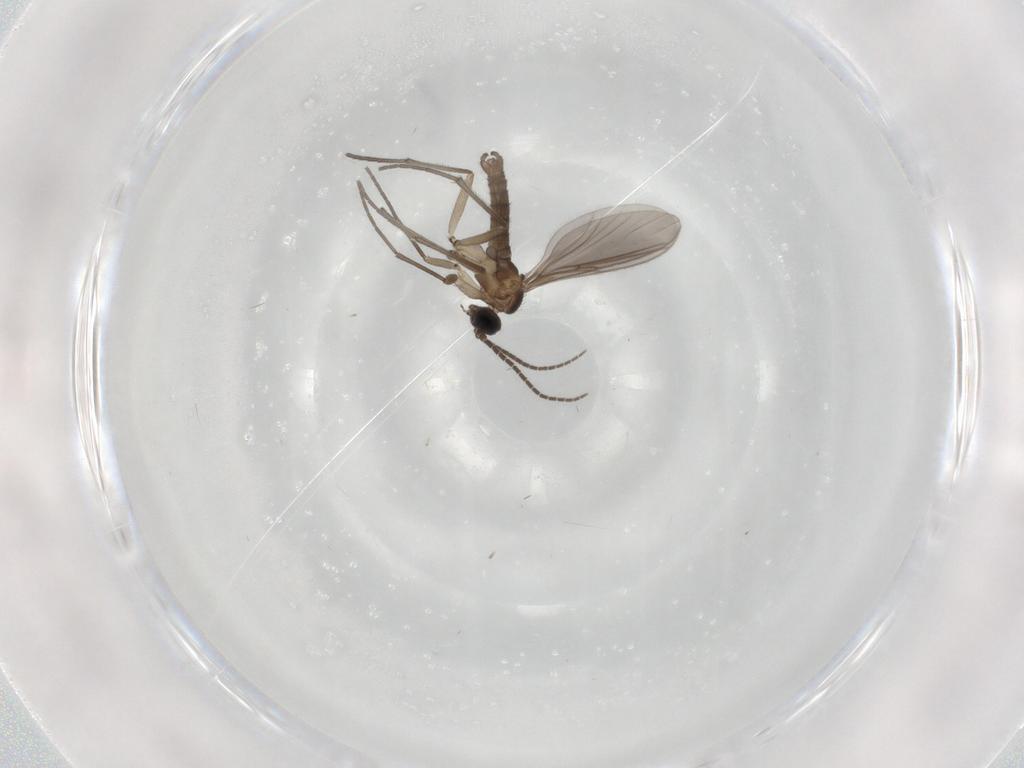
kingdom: Animalia
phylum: Arthropoda
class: Insecta
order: Diptera
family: Sciaridae
